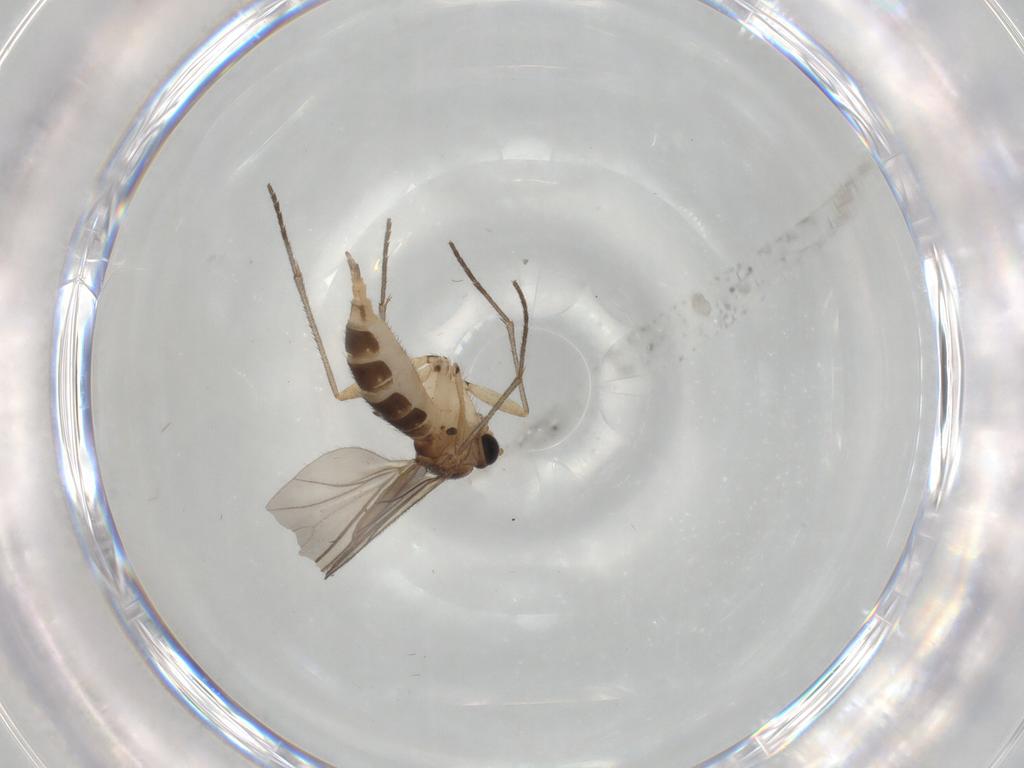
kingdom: Animalia
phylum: Arthropoda
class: Insecta
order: Diptera
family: Sciaridae
